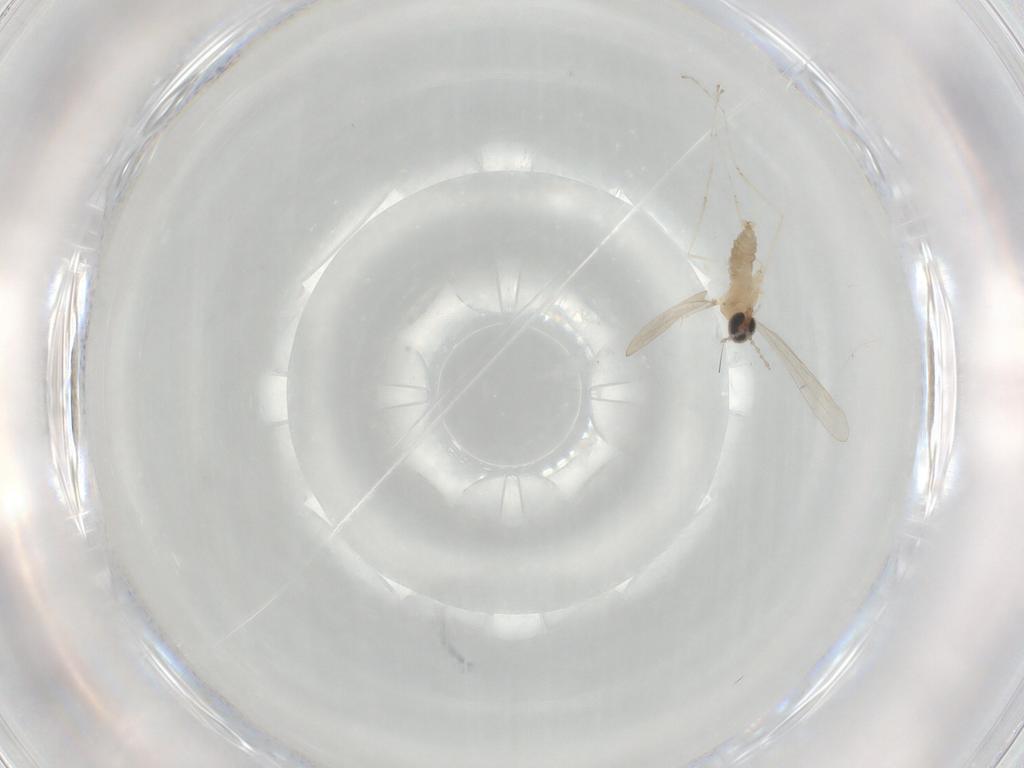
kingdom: Animalia
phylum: Arthropoda
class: Insecta
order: Diptera
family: Cecidomyiidae
